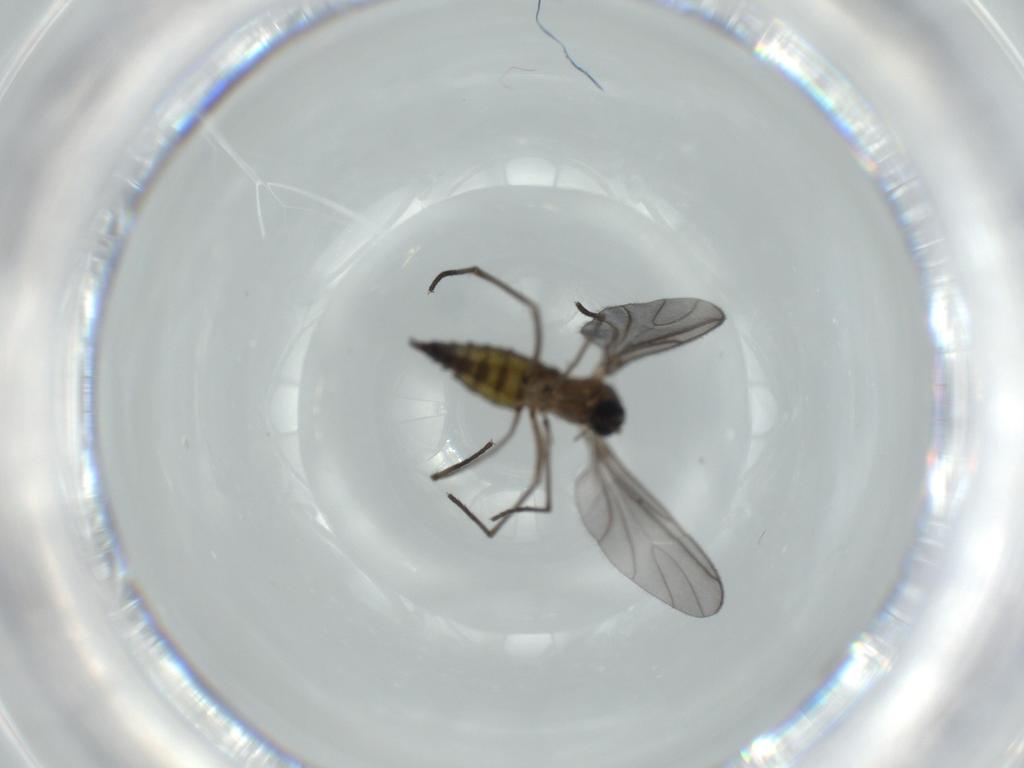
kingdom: Animalia
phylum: Arthropoda
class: Insecta
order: Diptera
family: Sciaridae
